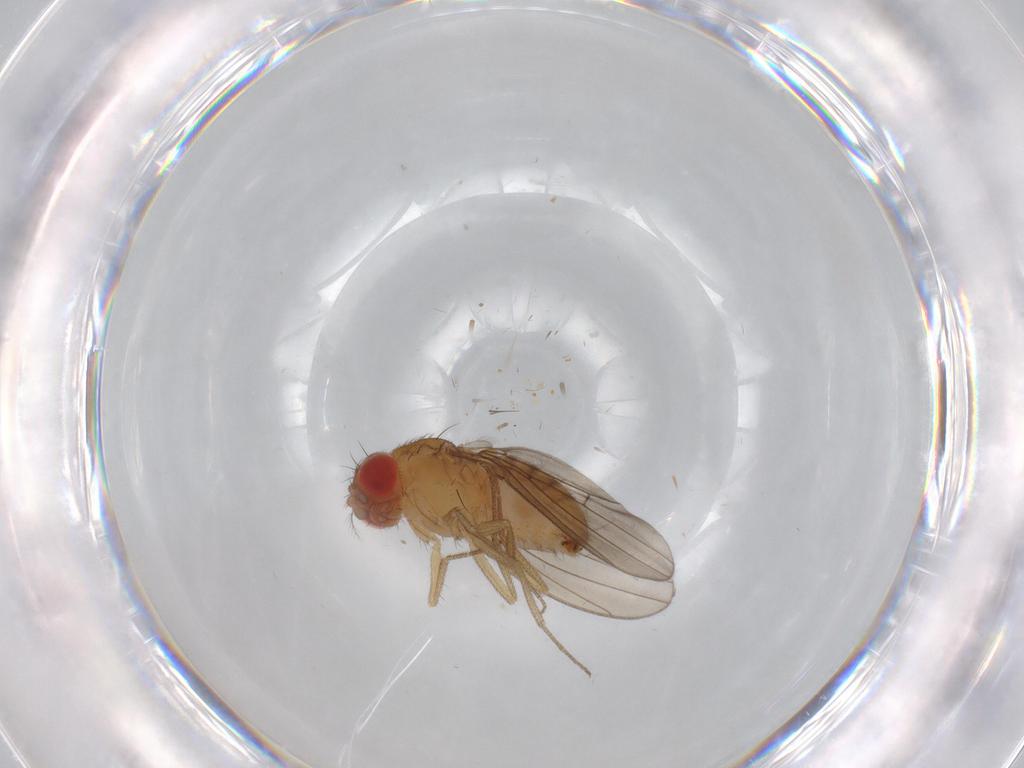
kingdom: Animalia
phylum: Arthropoda
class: Insecta
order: Diptera
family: Drosophilidae
